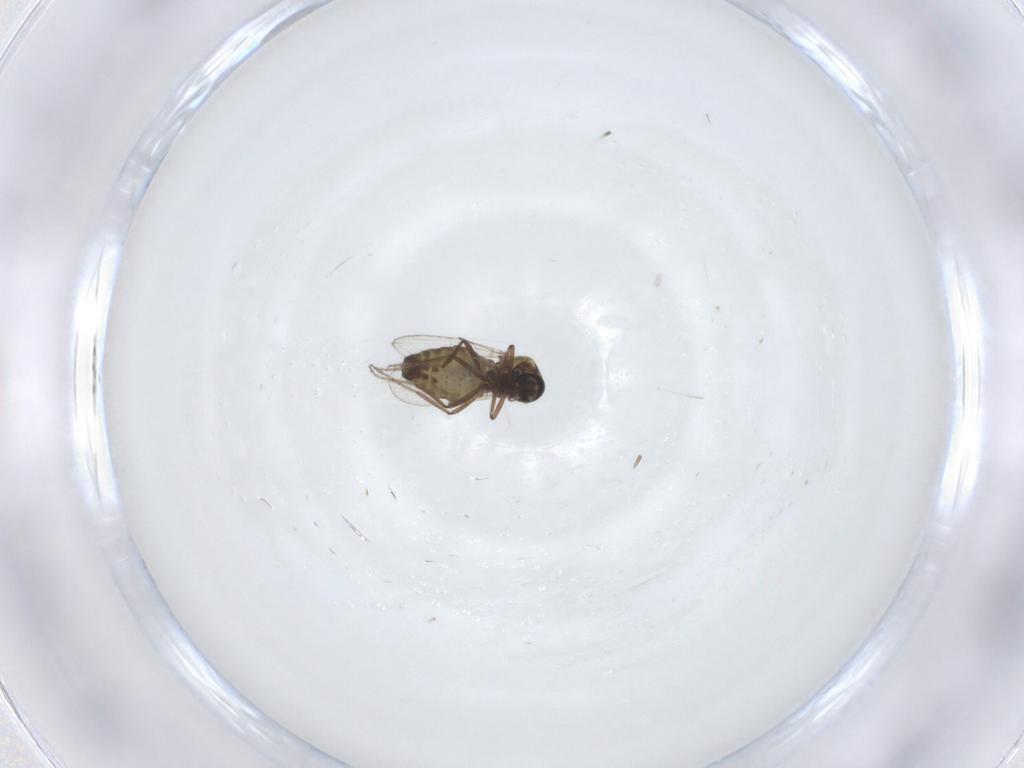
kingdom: Animalia
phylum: Arthropoda
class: Insecta
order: Diptera
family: Ceratopogonidae
